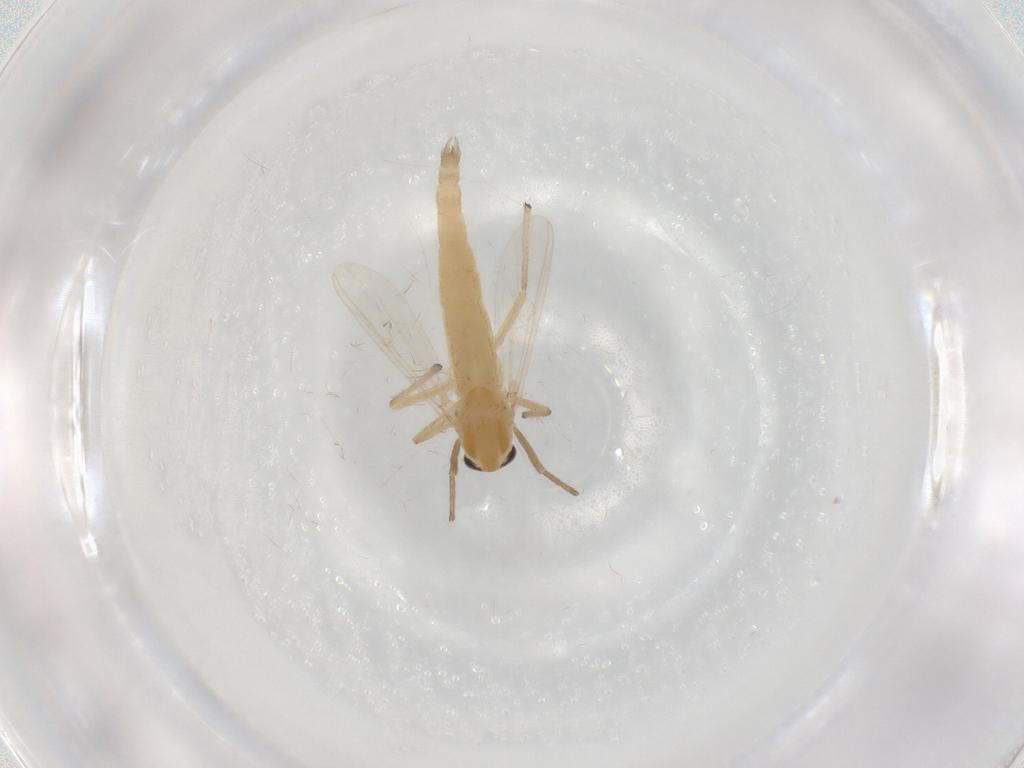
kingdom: Animalia
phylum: Arthropoda
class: Insecta
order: Diptera
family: Chironomidae
